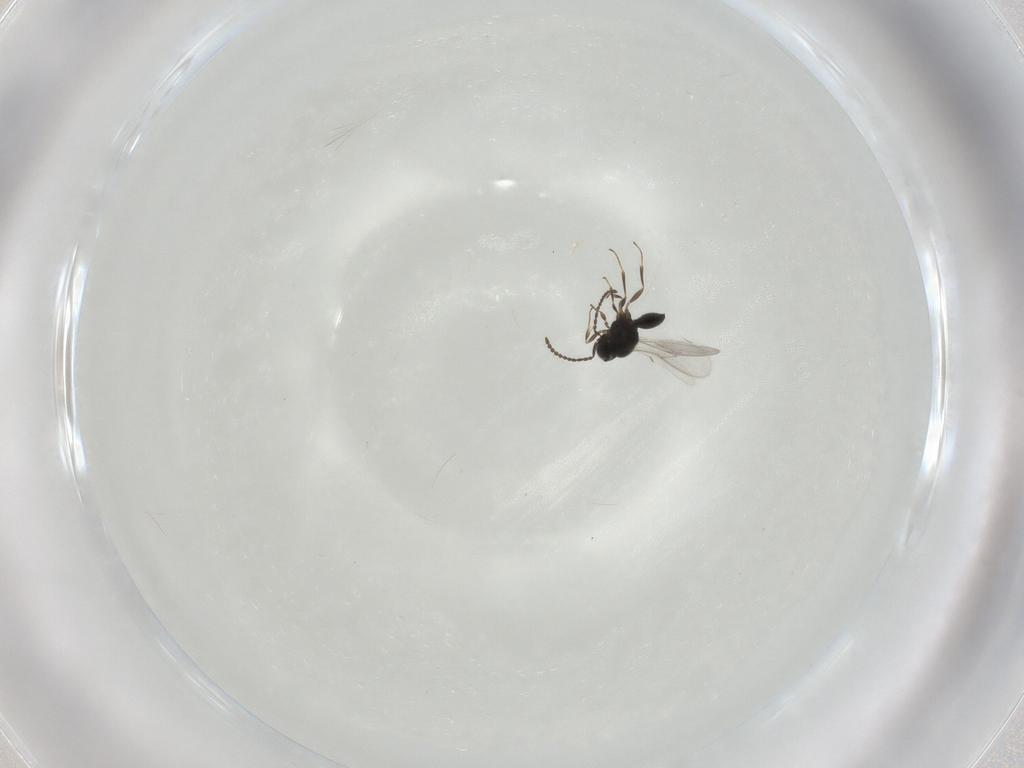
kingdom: Animalia
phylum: Arthropoda
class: Insecta
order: Hymenoptera
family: Scelionidae
